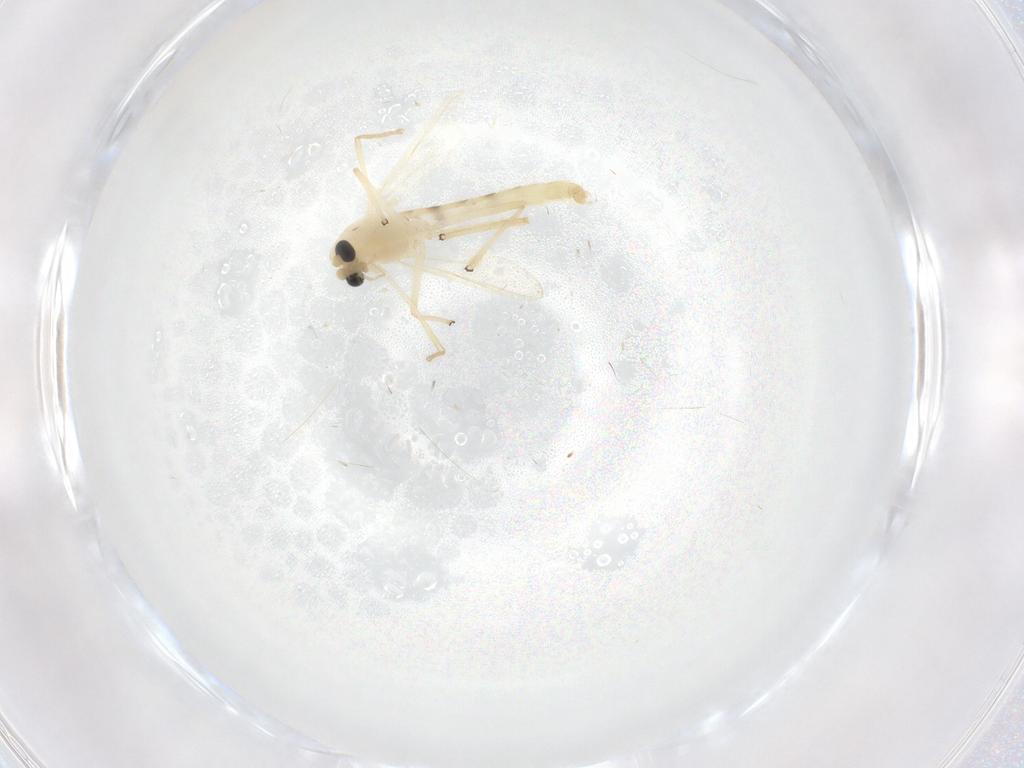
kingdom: Animalia
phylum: Arthropoda
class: Insecta
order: Diptera
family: Chironomidae
